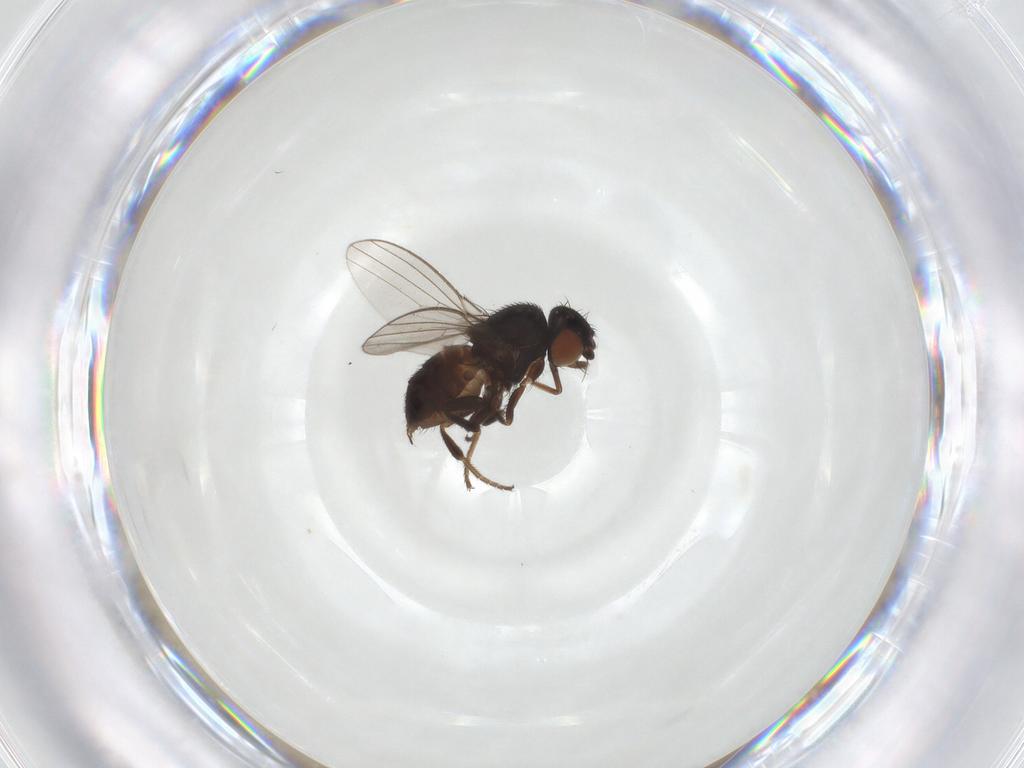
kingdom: Animalia
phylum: Arthropoda
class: Insecta
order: Diptera
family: Milichiidae
